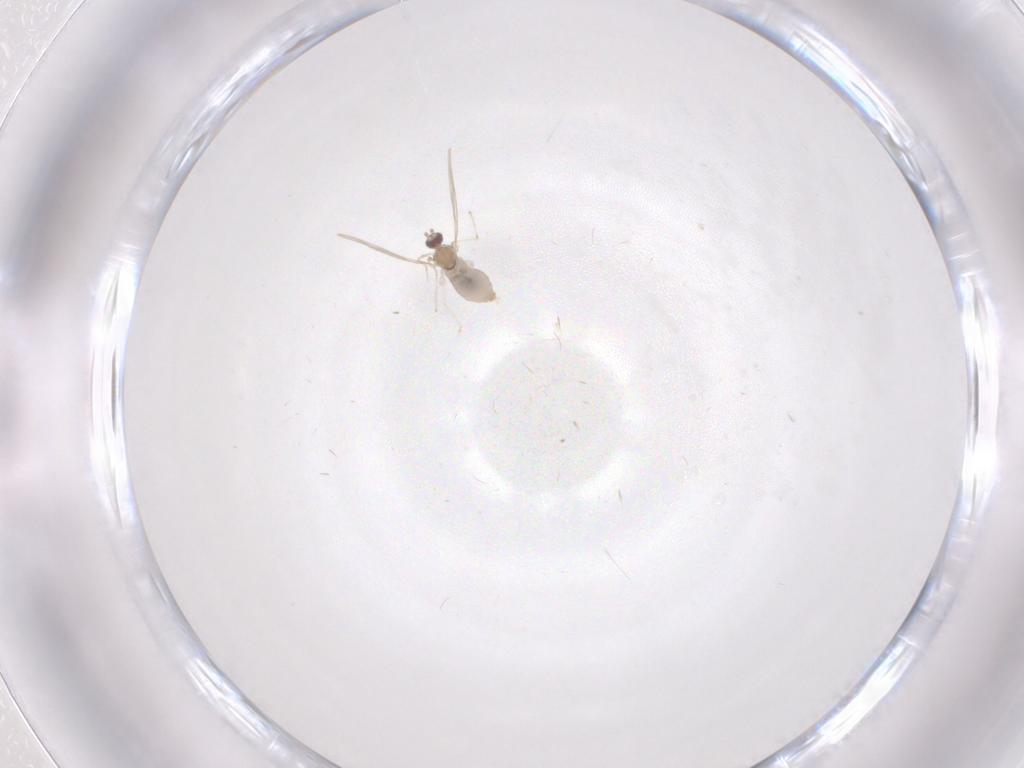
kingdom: Animalia
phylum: Arthropoda
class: Insecta
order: Diptera
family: Cecidomyiidae
